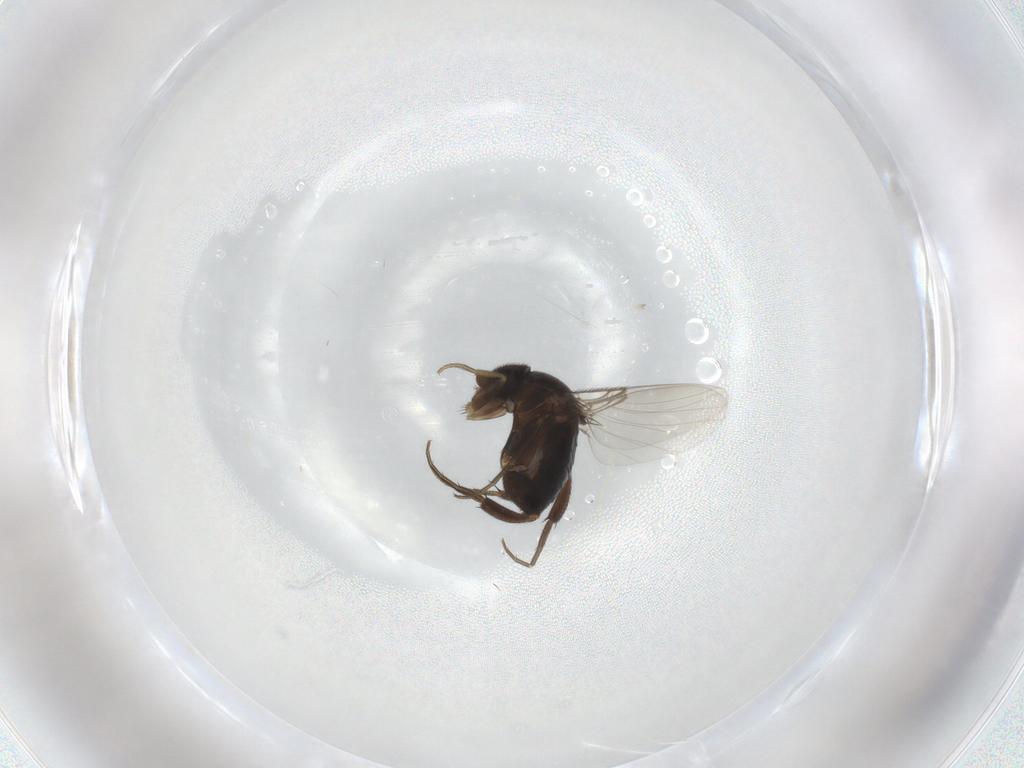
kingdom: Animalia
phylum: Arthropoda
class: Insecta
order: Diptera
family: Phoridae
